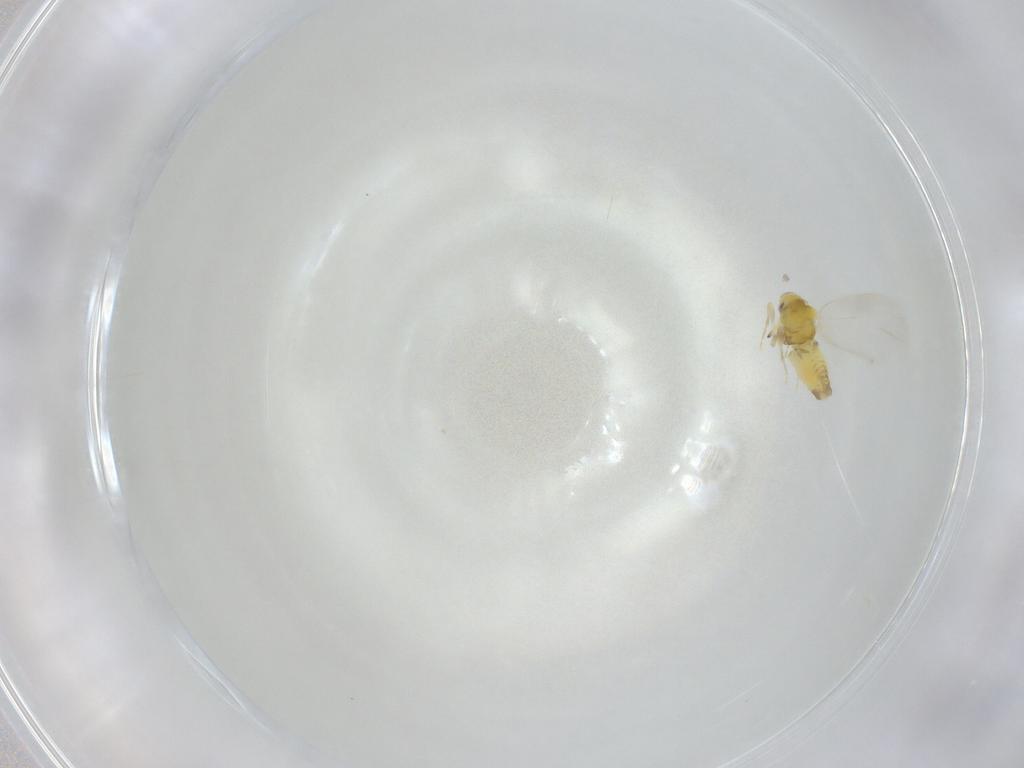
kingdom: Animalia
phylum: Arthropoda
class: Insecta
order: Hemiptera
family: Aleyrodidae
